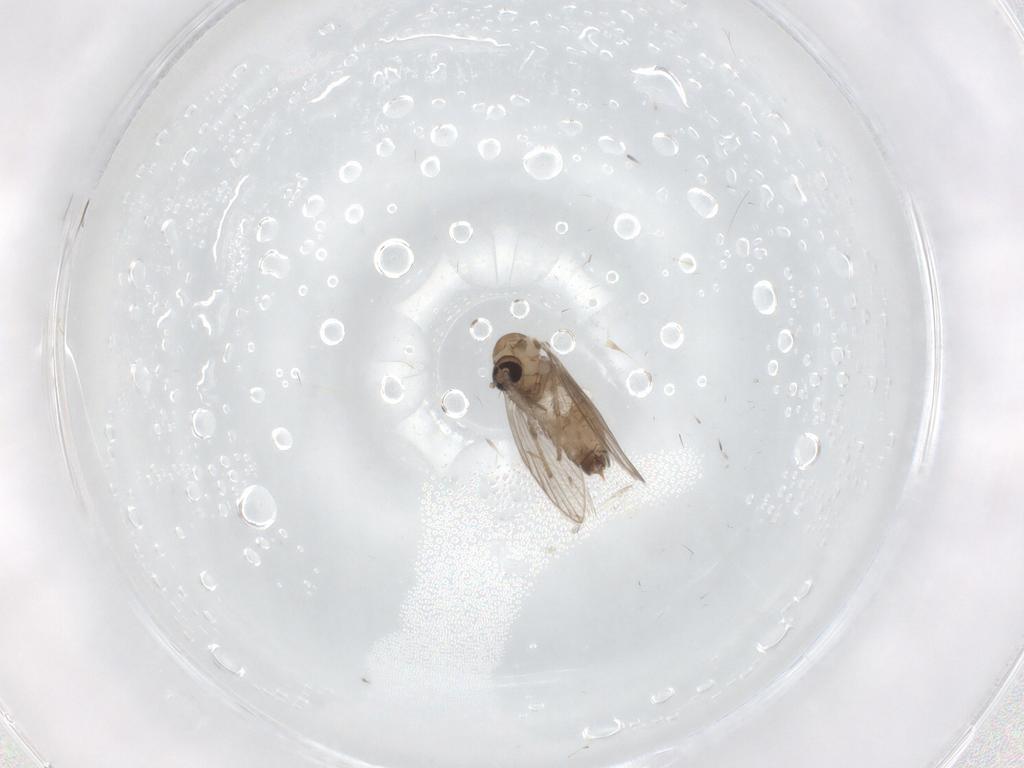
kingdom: Animalia
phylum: Arthropoda
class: Insecta
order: Diptera
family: Psychodidae
